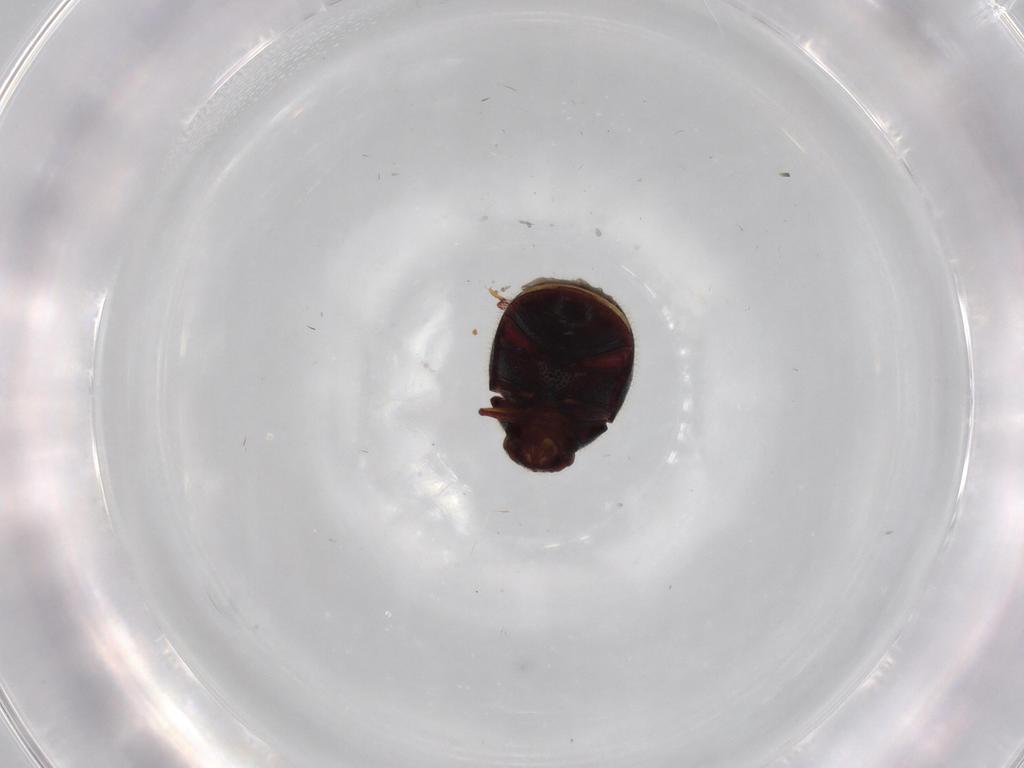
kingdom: Animalia
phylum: Arthropoda
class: Insecta
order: Coleoptera
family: Ptinidae
